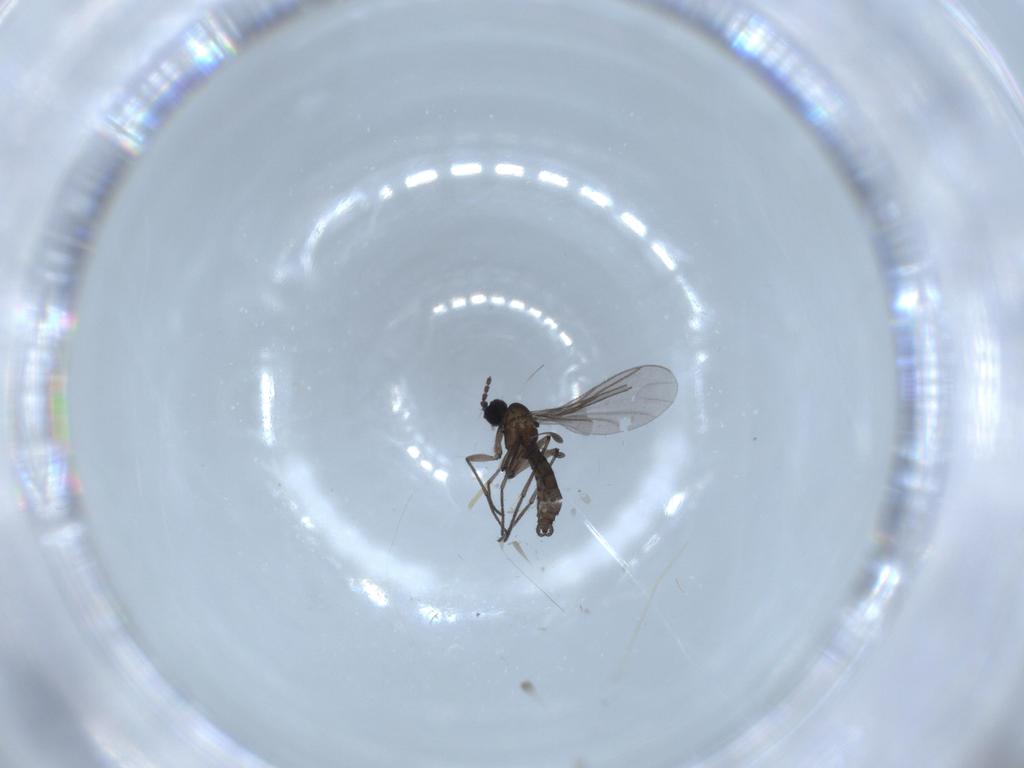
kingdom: Animalia
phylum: Arthropoda
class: Insecta
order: Diptera
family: Sciaridae
